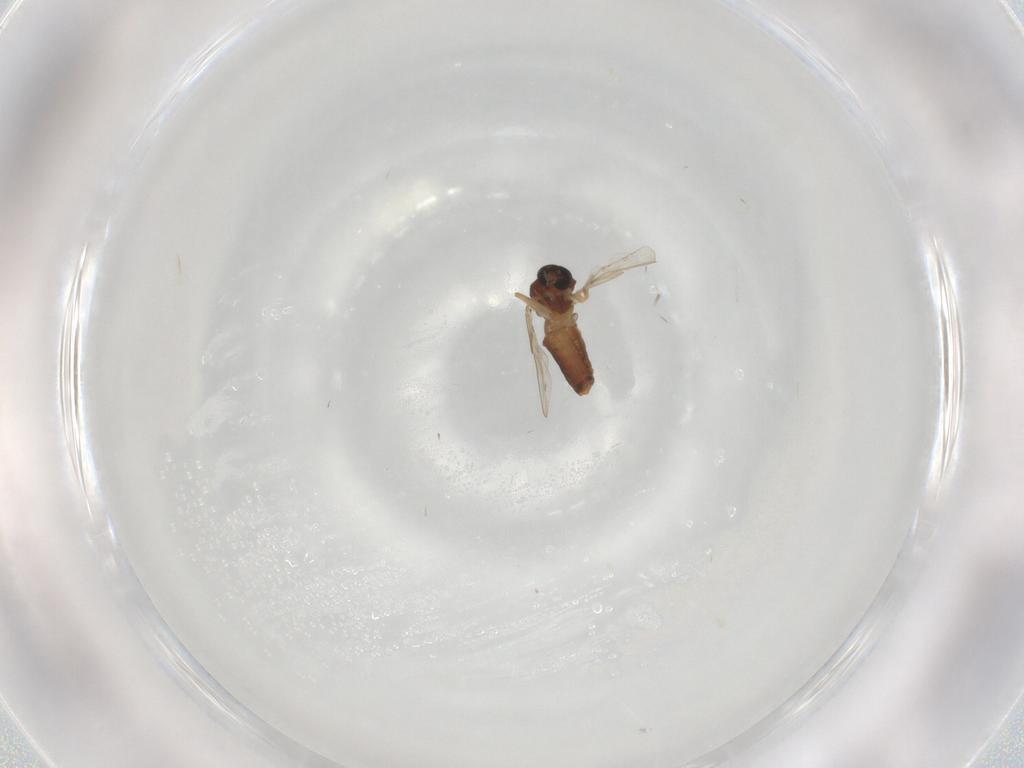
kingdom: Animalia
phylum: Arthropoda
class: Insecta
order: Diptera
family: Ceratopogonidae
